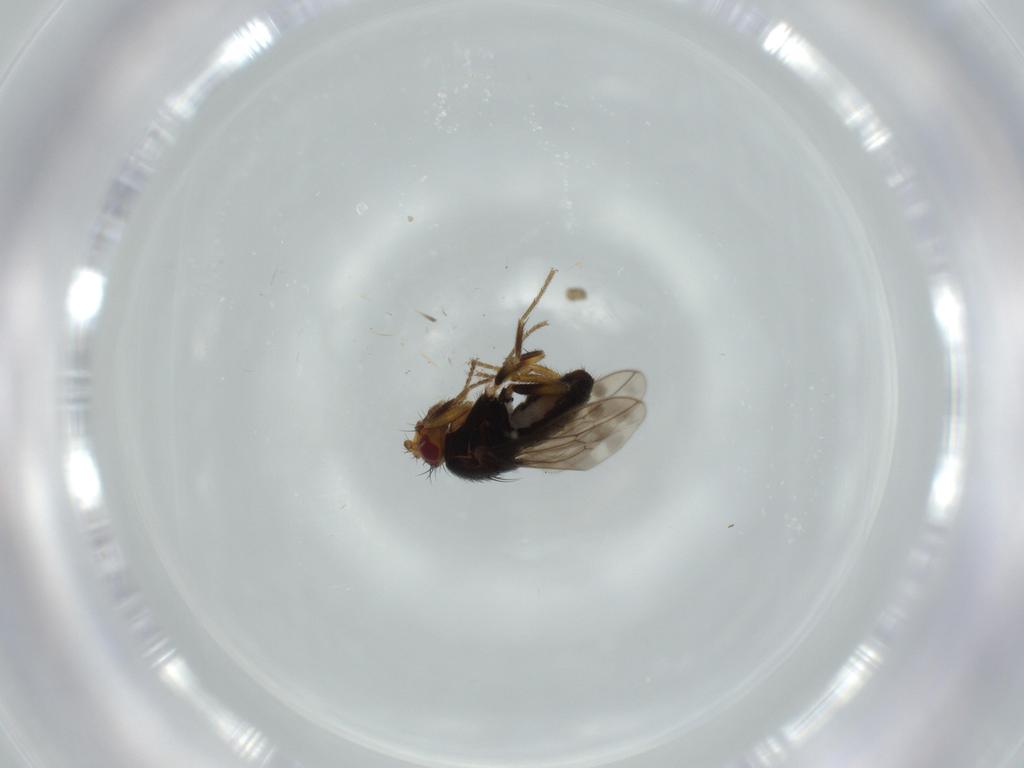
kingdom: Animalia
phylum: Arthropoda
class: Insecta
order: Diptera
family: Sphaeroceridae
